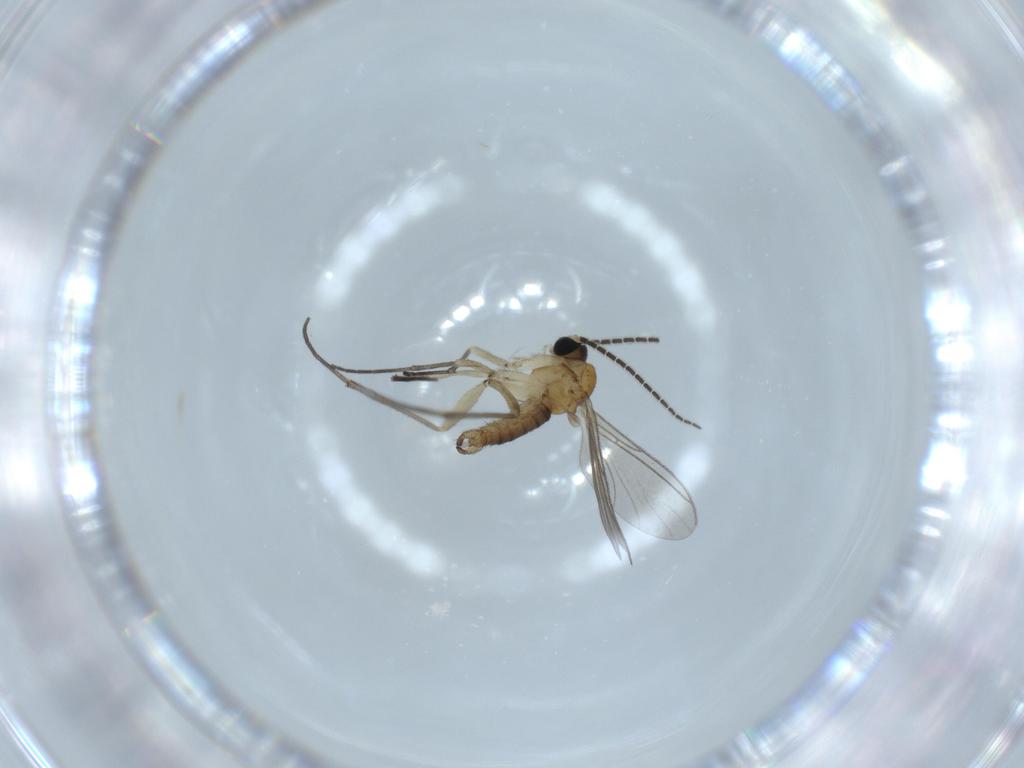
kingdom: Animalia
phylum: Arthropoda
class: Insecta
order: Diptera
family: Sciaridae
